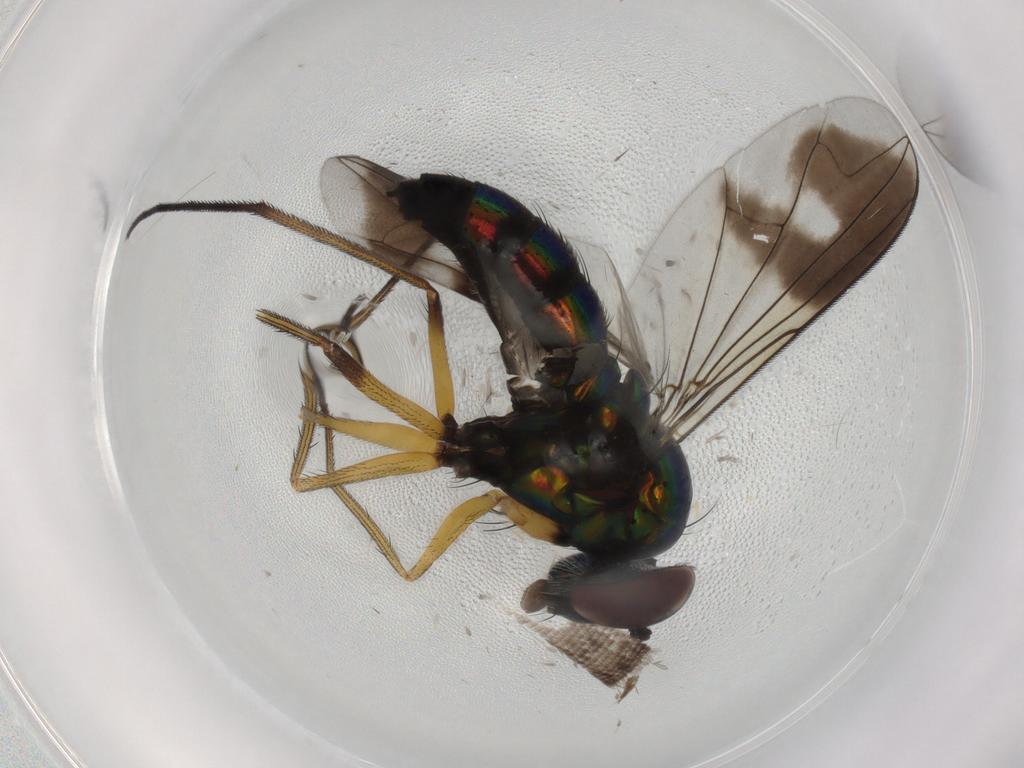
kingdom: Animalia
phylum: Arthropoda
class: Insecta
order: Diptera
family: Dolichopodidae
